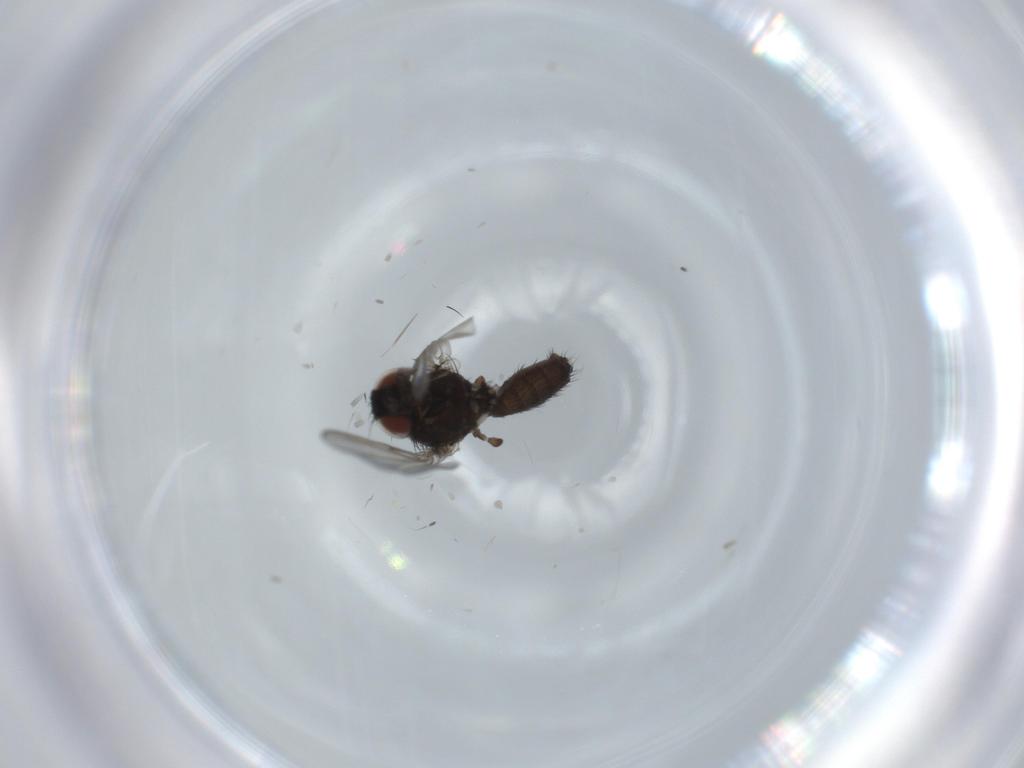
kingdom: Animalia
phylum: Arthropoda
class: Insecta
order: Diptera
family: Milichiidae
